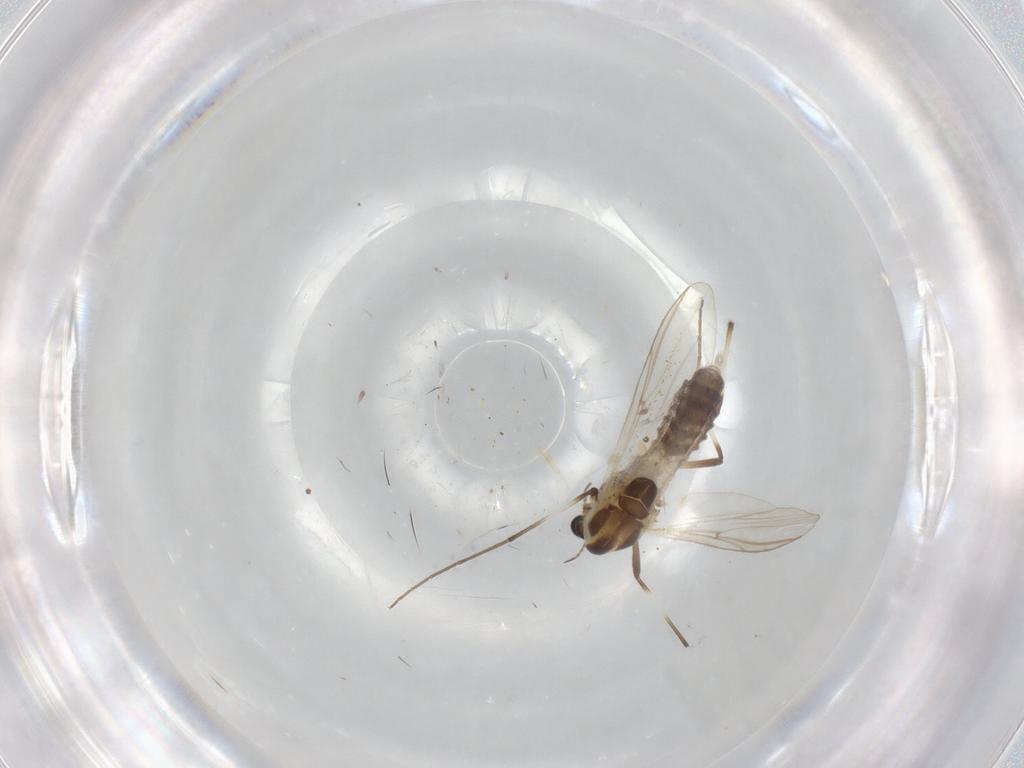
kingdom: Animalia
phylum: Arthropoda
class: Insecta
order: Diptera
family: Chironomidae
